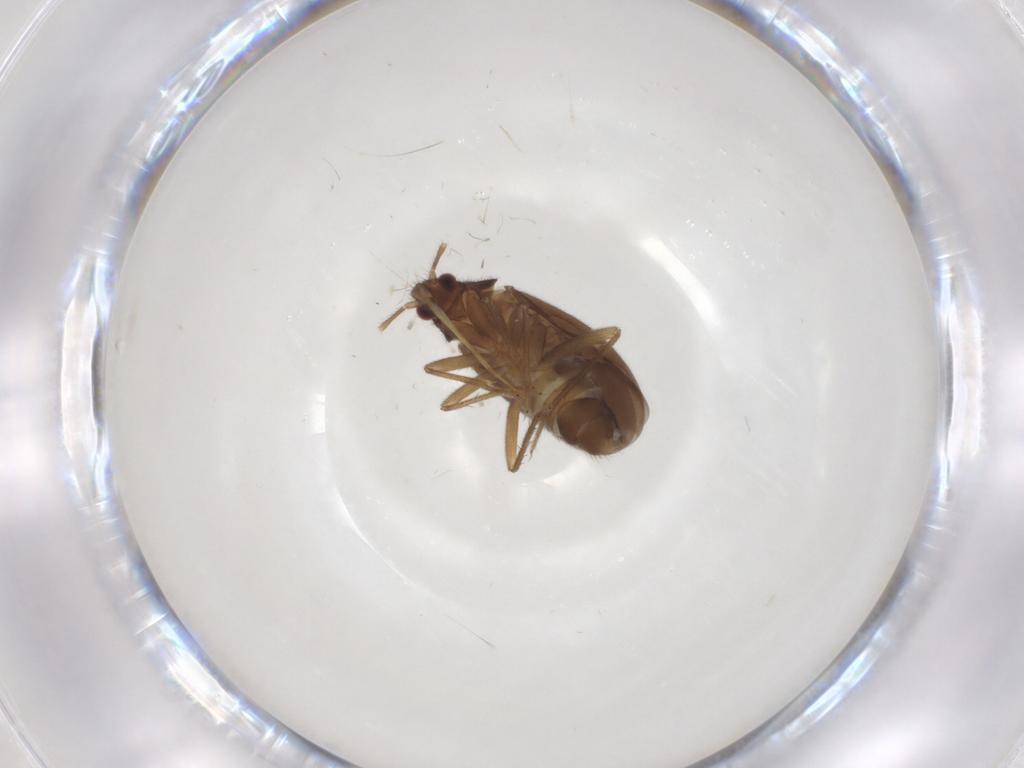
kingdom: Animalia
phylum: Arthropoda
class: Insecta
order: Hemiptera
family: Ceratocombidae
